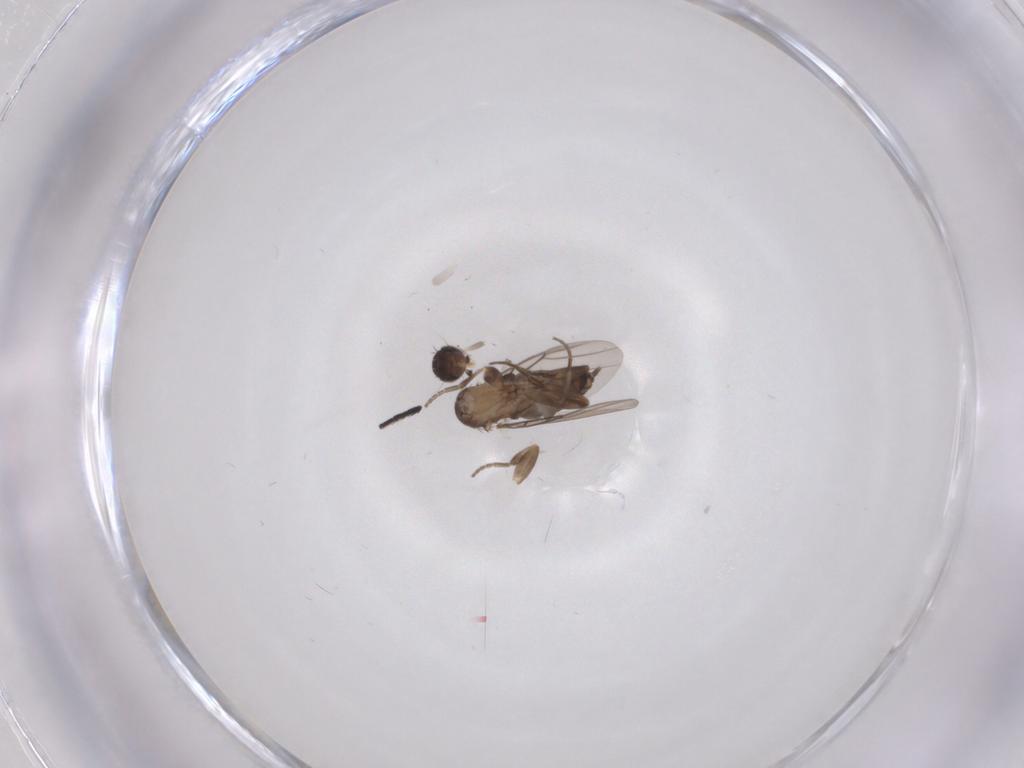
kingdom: Animalia
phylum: Arthropoda
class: Insecta
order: Diptera
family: Phoridae
